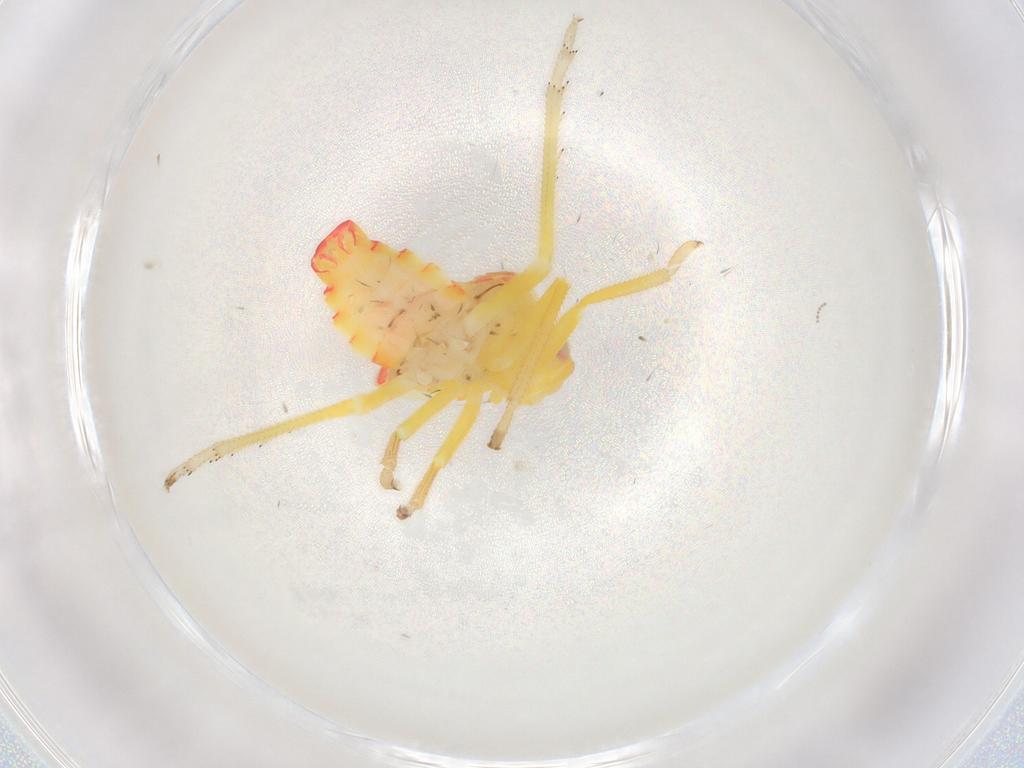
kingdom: Animalia
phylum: Arthropoda
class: Insecta
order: Hemiptera
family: Tropiduchidae
